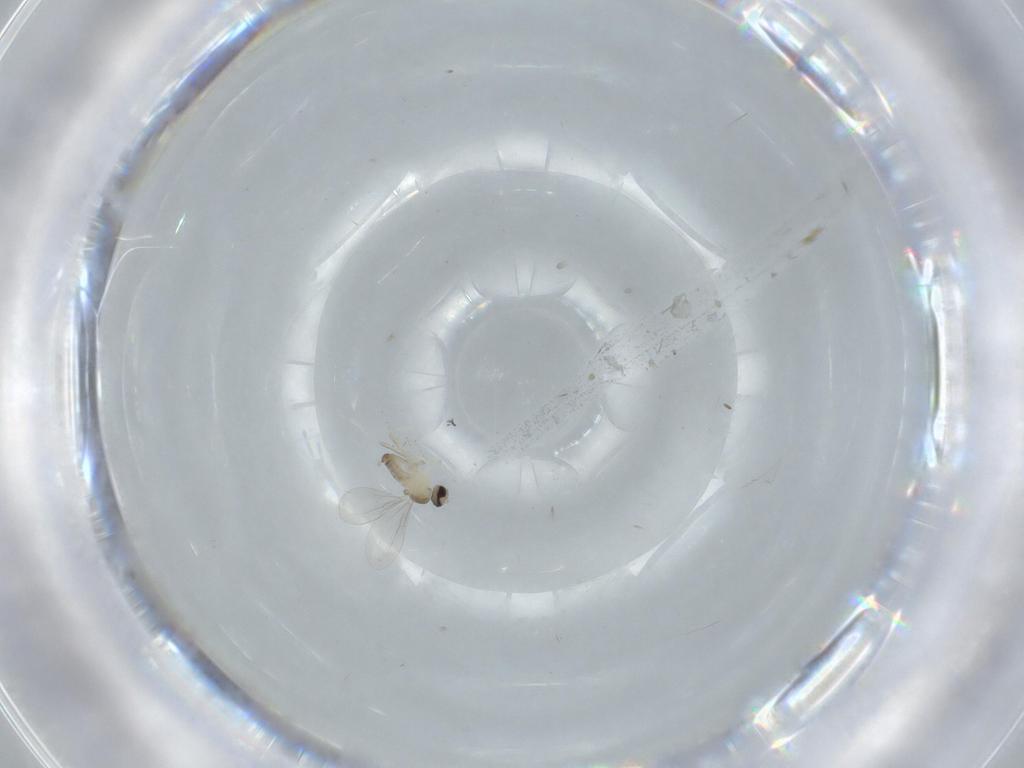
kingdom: Animalia
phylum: Arthropoda
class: Insecta
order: Diptera
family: Cecidomyiidae
